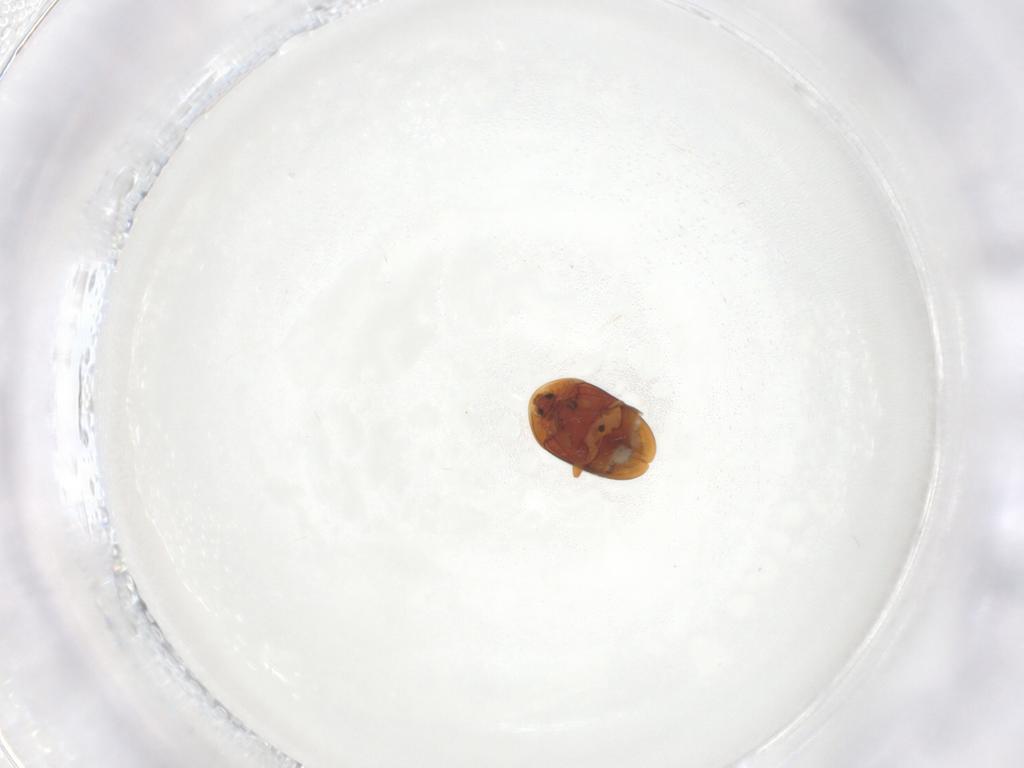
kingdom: Animalia
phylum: Arthropoda
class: Insecta
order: Coleoptera
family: Corylophidae
